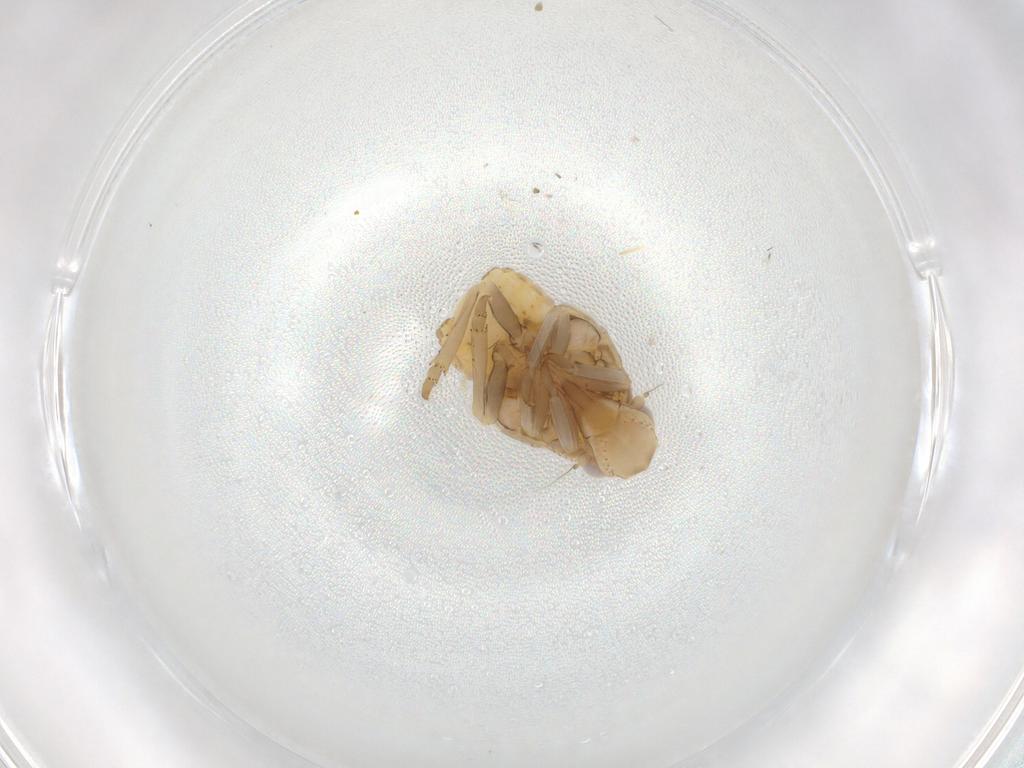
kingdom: Animalia
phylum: Arthropoda
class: Insecta
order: Hemiptera
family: Flatidae
